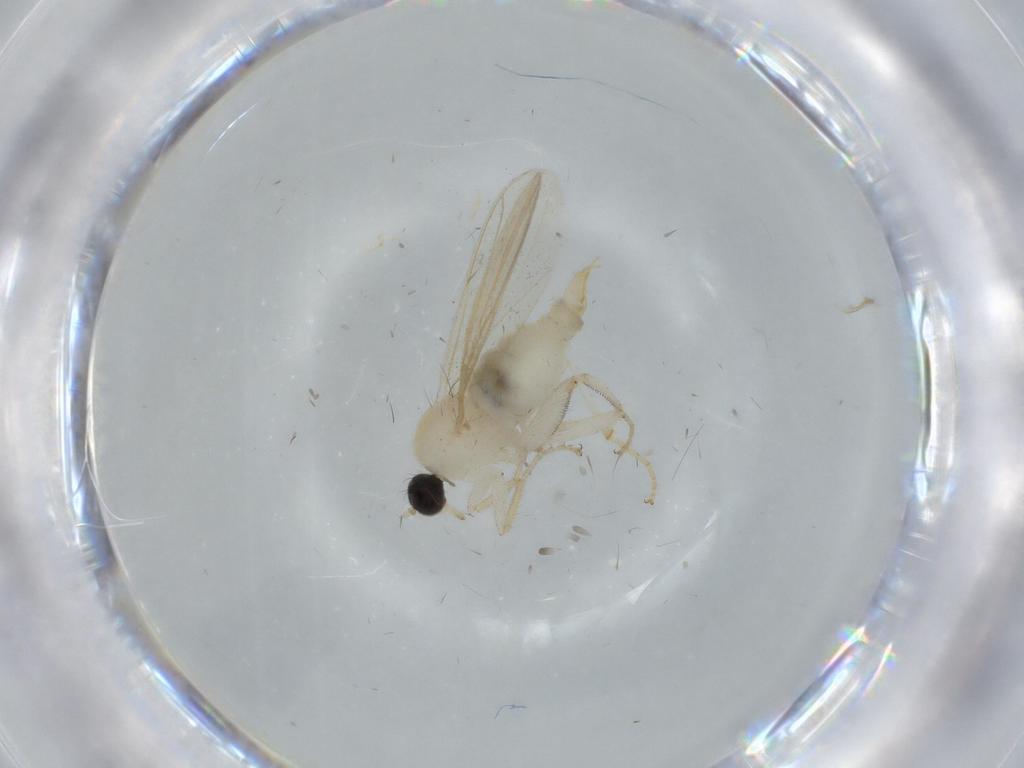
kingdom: Animalia
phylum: Arthropoda
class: Insecta
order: Diptera
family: Cecidomyiidae
